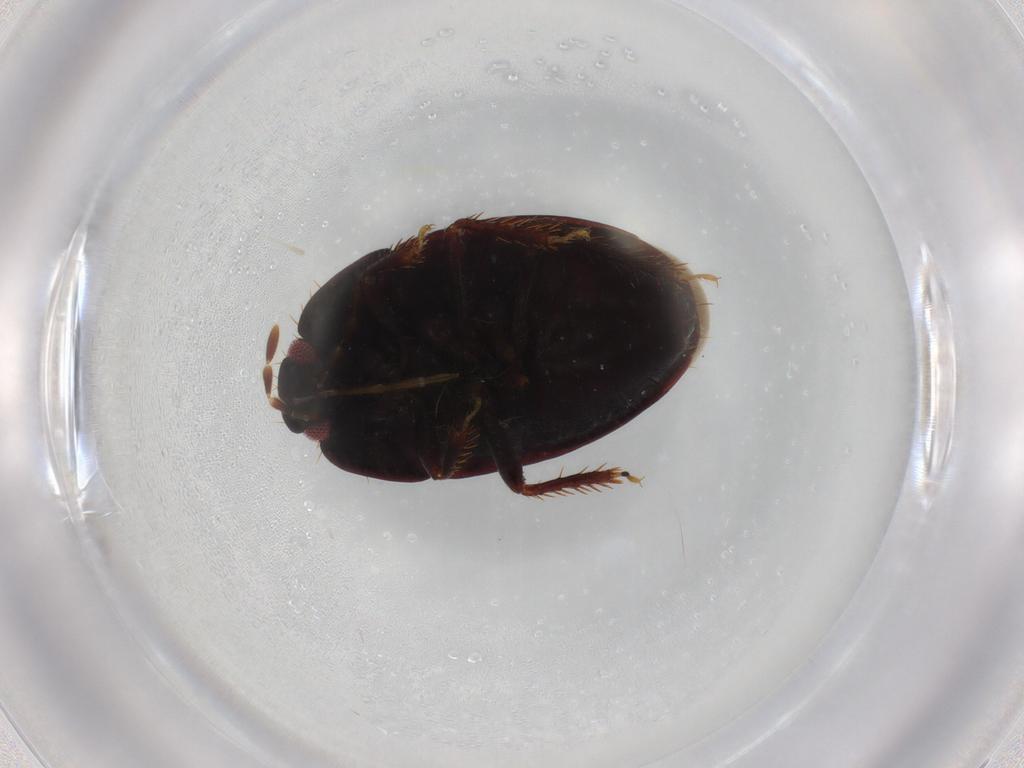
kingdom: Animalia
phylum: Arthropoda
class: Insecta
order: Hemiptera
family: Cydnidae
